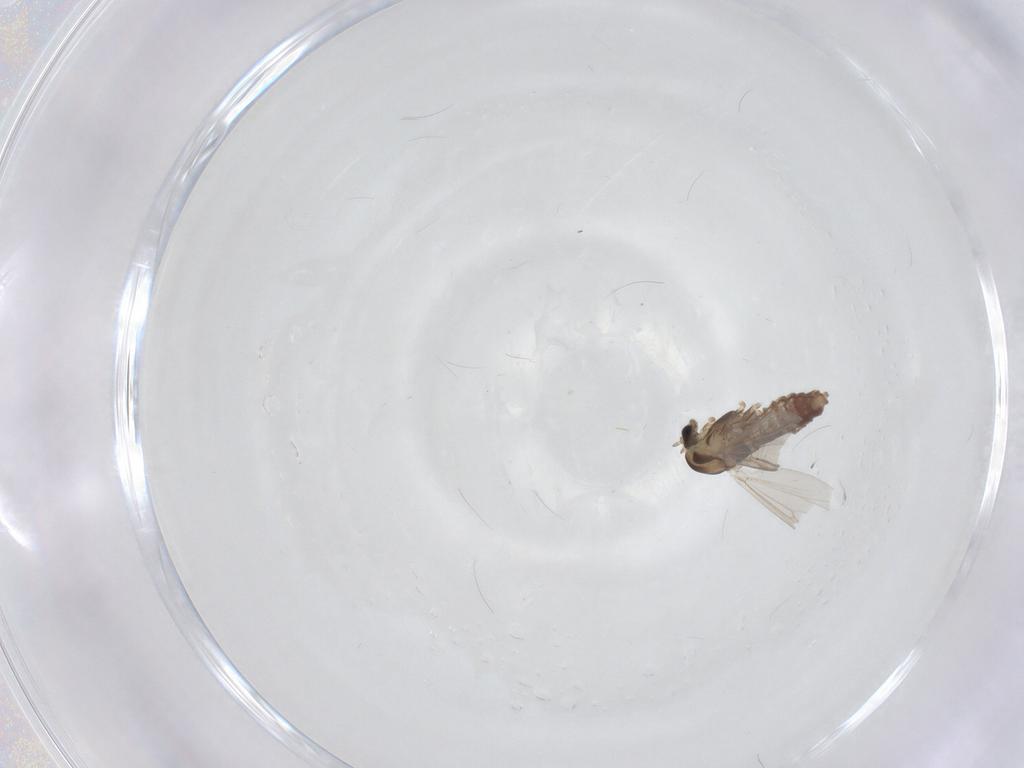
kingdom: Animalia
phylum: Arthropoda
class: Insecta
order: Diptera
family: Chironomidae
